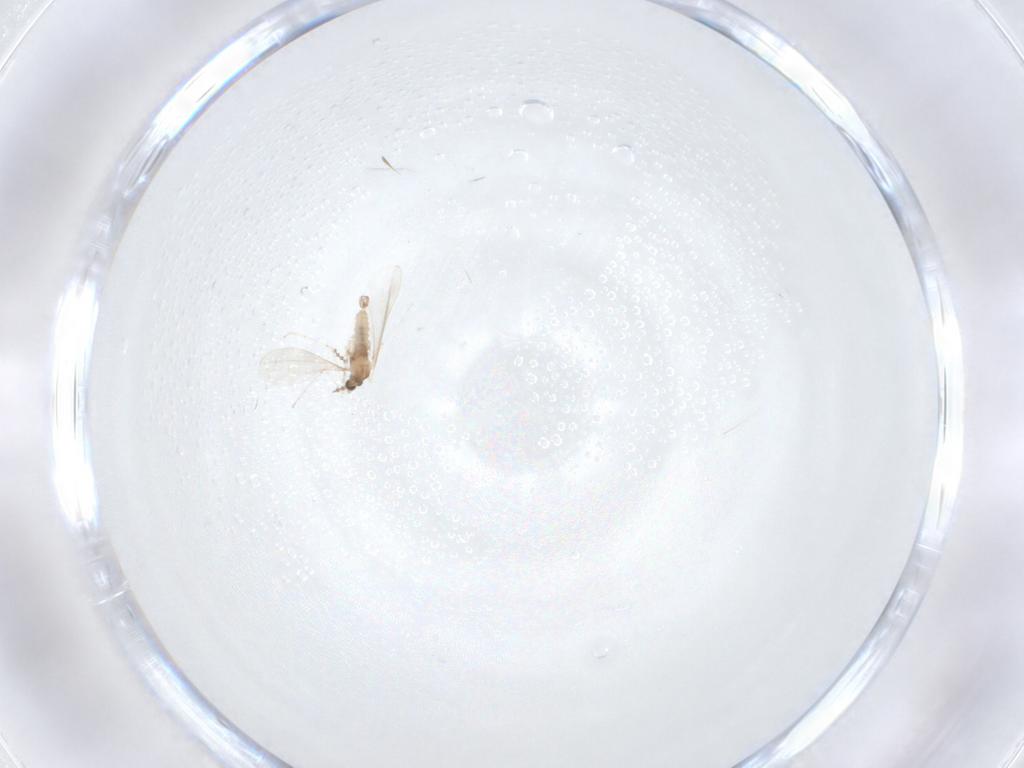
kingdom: Animalia
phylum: Arthropoda
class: Insecta
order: Diptera
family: Cecidomyiidae
